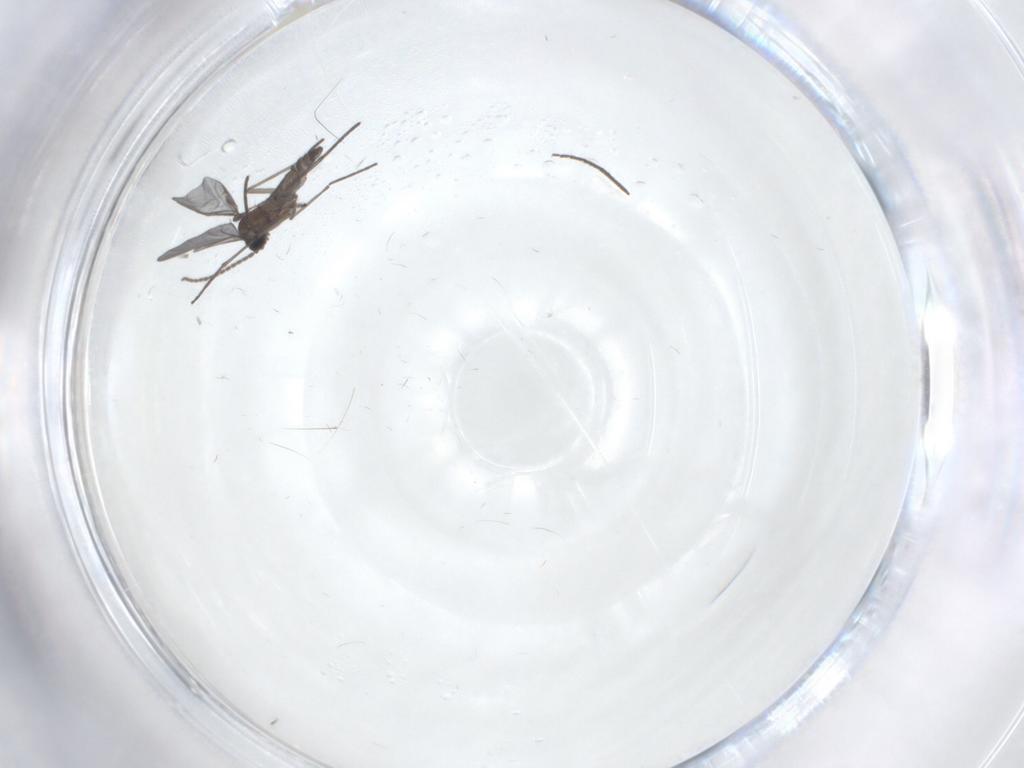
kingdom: Animalia
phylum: Arthropoda
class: Insecta
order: Diptera
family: Chironomidae
